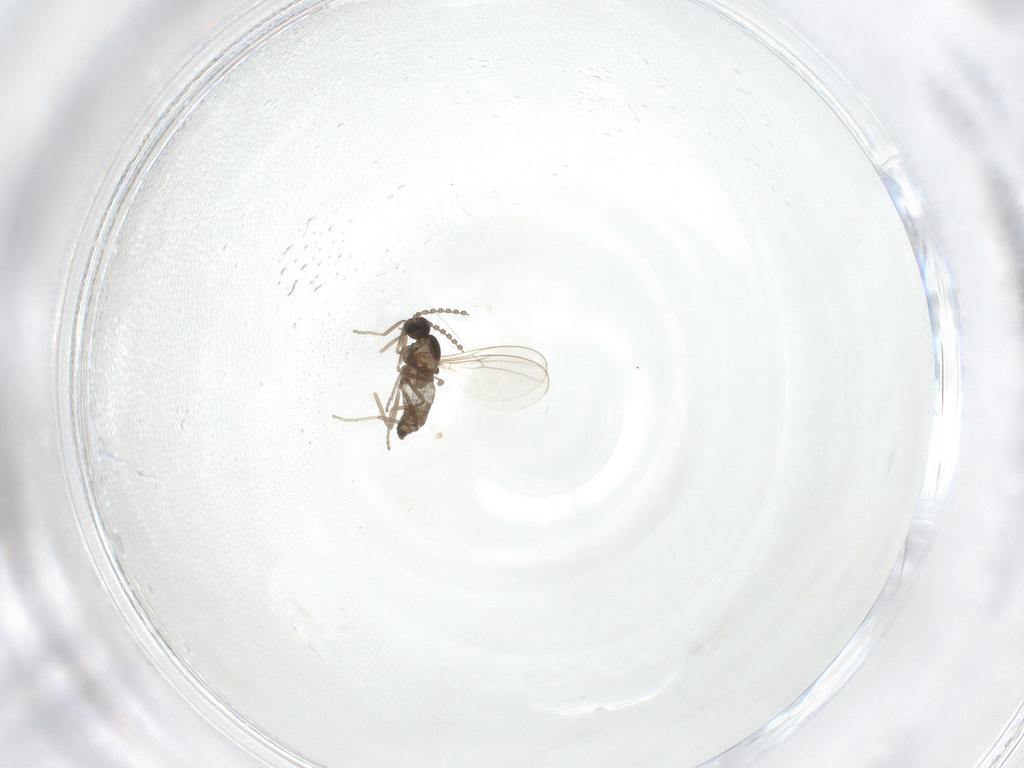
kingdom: Animalia
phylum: Arthropoda
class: Insecta
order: Diptera
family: Cecidomyiidae
